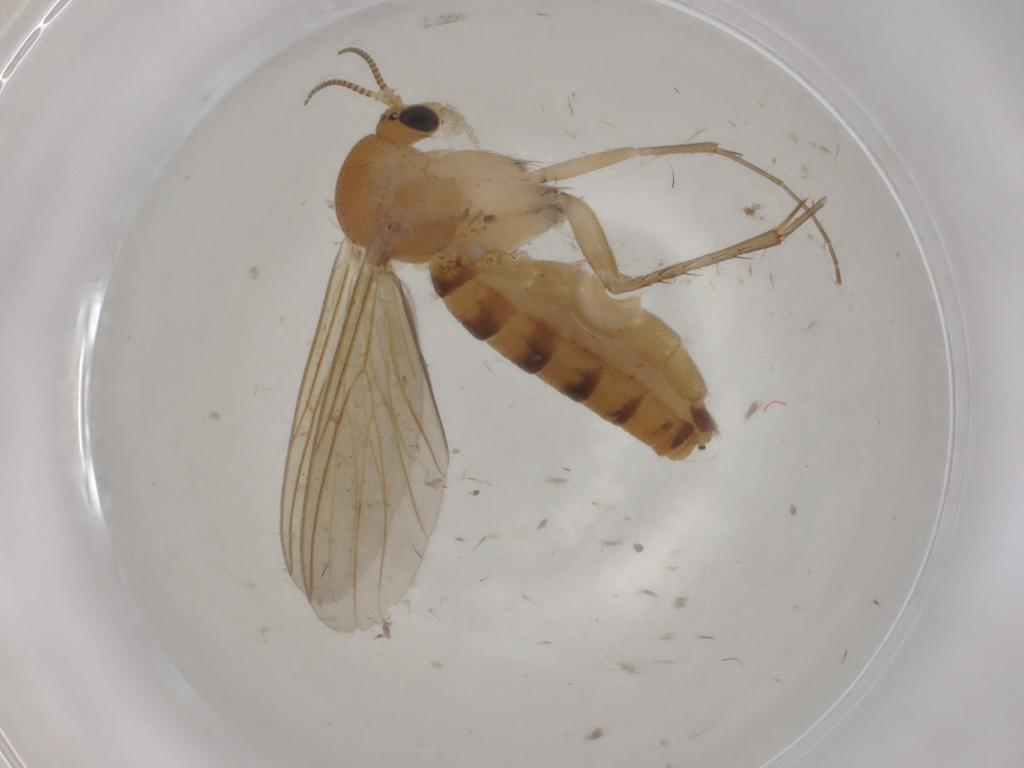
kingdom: Animalia
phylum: Arthropoda
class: Insecta
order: Diptera
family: Mycetophilidae
